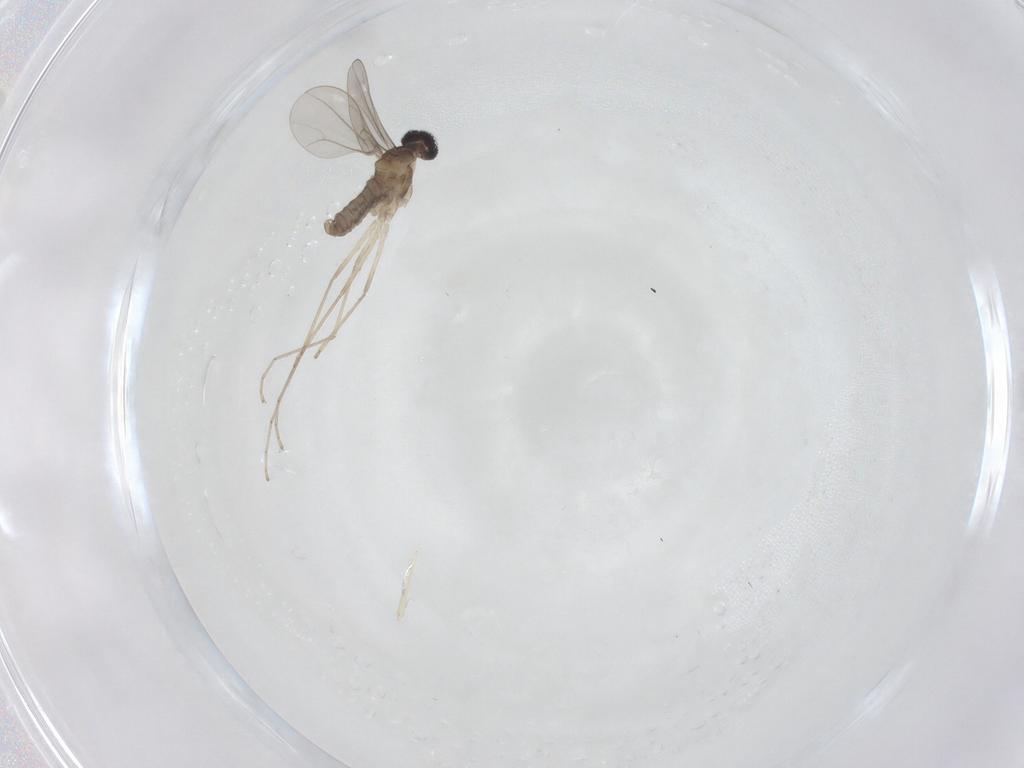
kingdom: Animalia
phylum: Arthropoda
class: Insecta
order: Diptera
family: Cecidomyiidae
